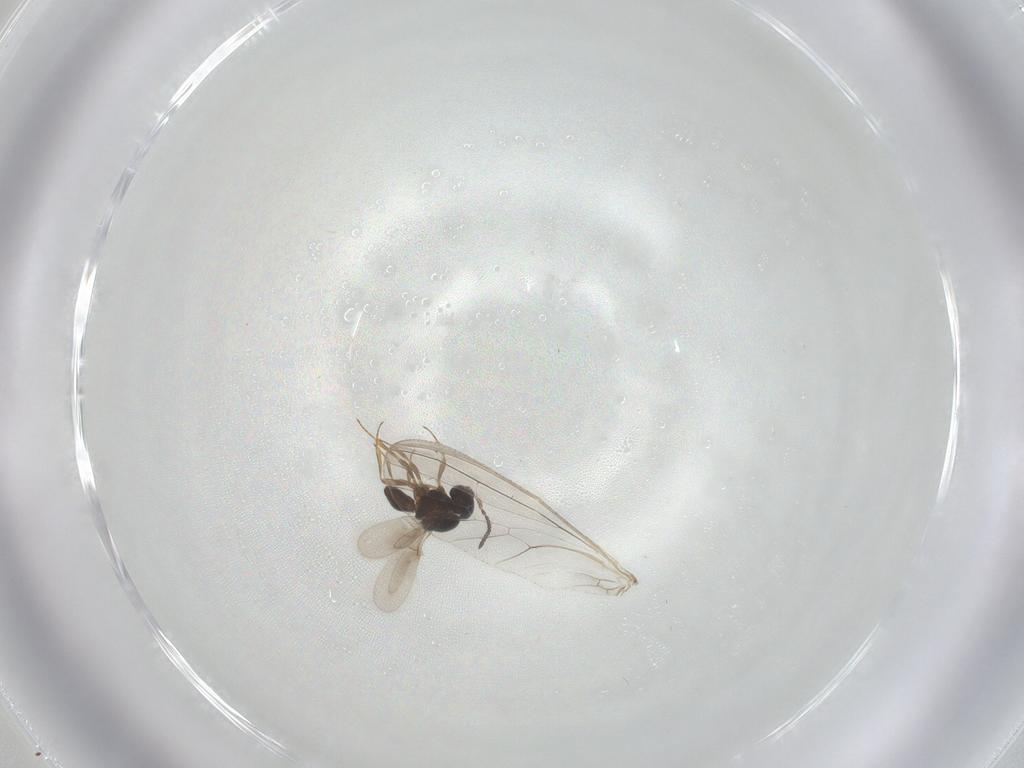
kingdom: Animalia
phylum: Arthropoda
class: Insecta
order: Hymenoptera
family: Scelionidae
